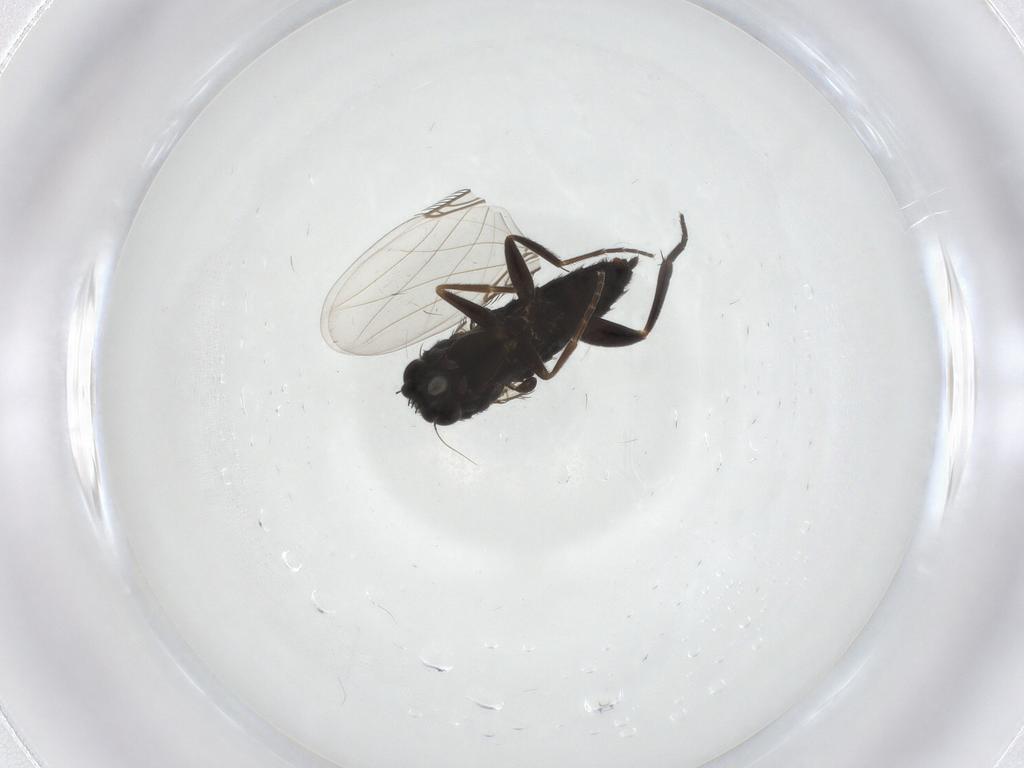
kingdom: Animalia
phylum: Arthropoda
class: Insecta
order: Diptera
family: Phoridae
